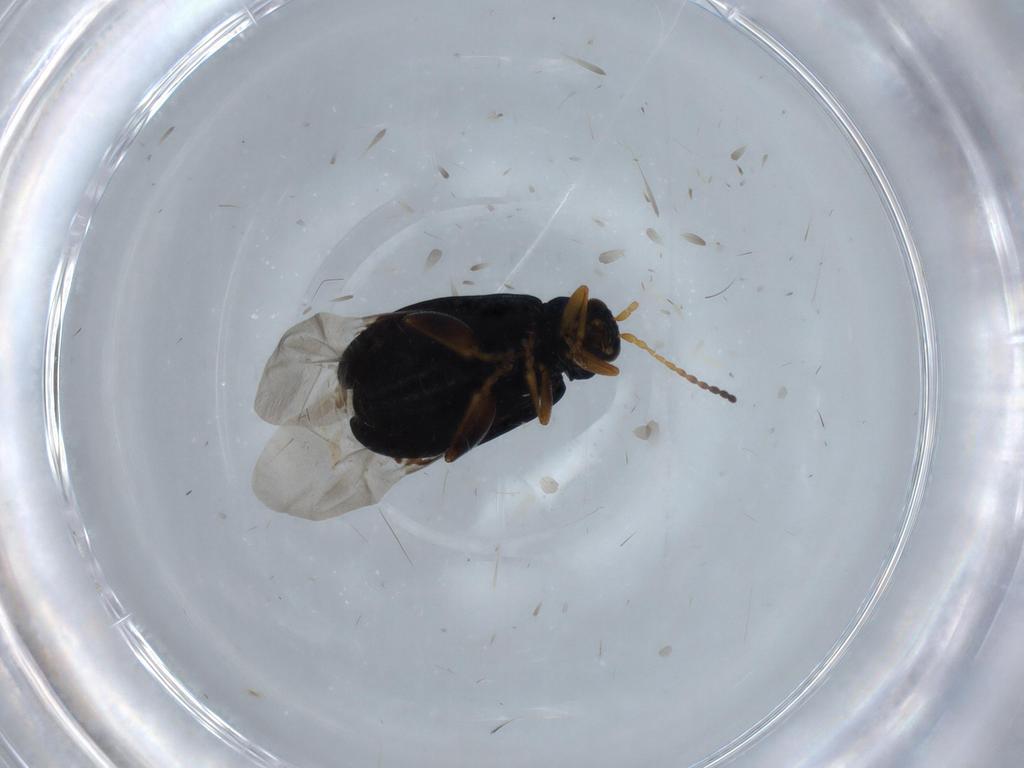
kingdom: Animalia
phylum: Arthropoda
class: Insecta
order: Coleoptera
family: Chrysomelidae
